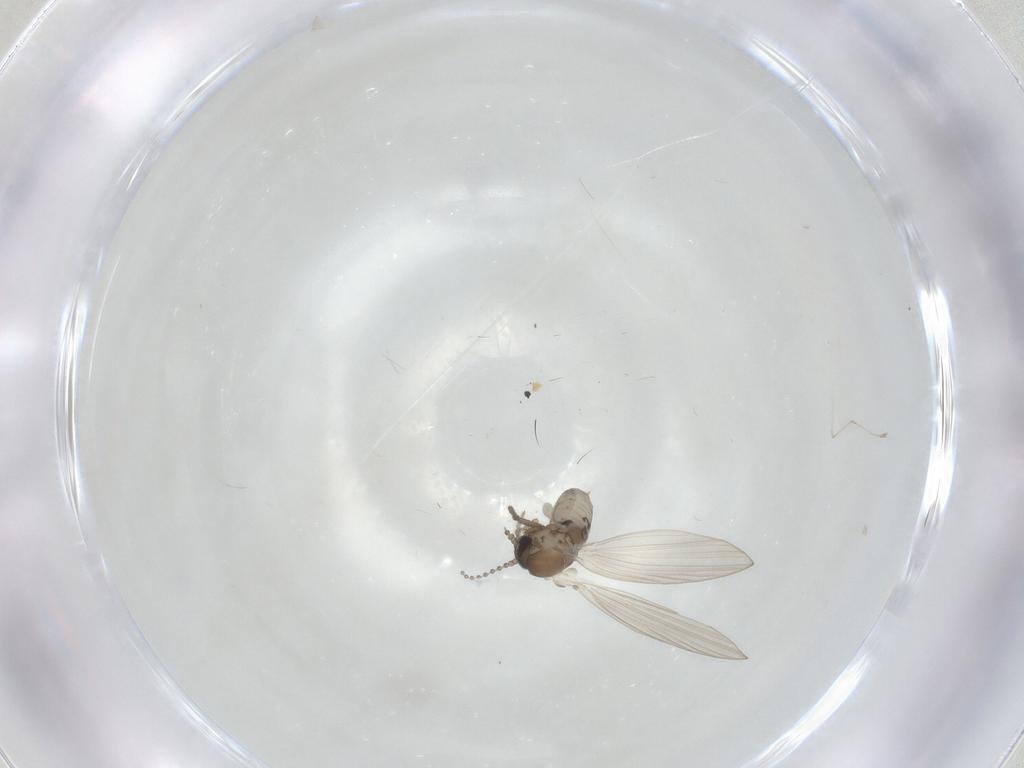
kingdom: Animalia
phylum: Arthropoda
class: Insecta
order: Diptera
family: Psychodidae
